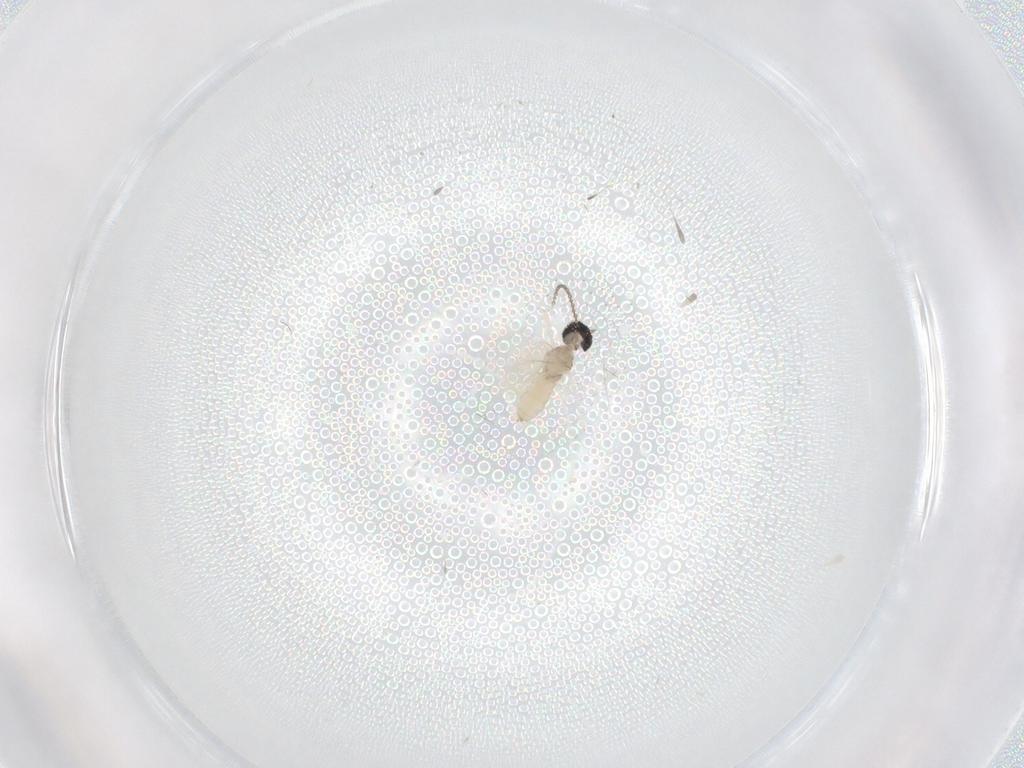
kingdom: Animalia
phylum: Arthropoda
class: Insecta
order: Diptera
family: Cecidomyiidae
